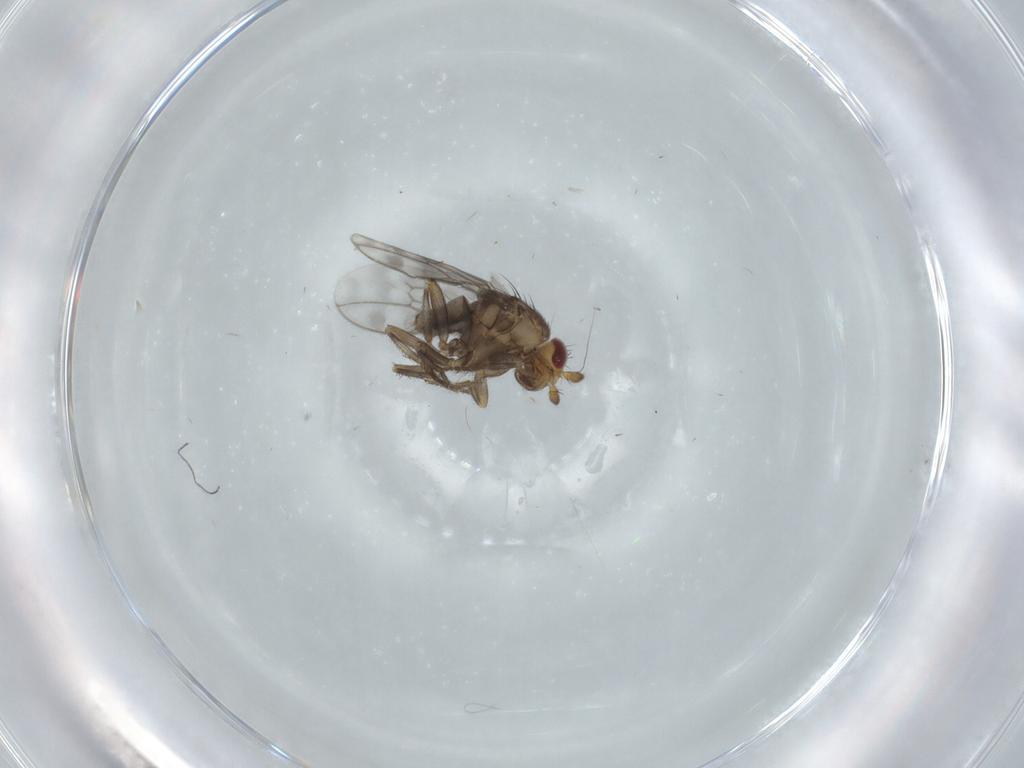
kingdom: Animalia
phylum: Arthropoda
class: Insecta
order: Diptera
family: Sphaeroceridae
